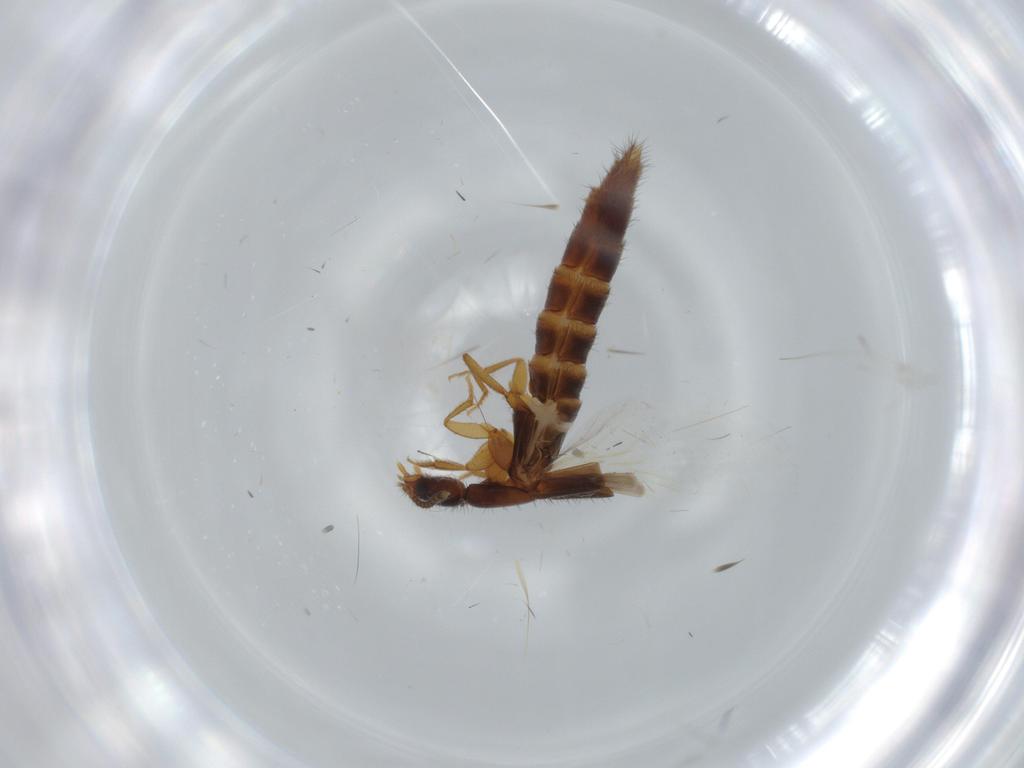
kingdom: Animalia
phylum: Arthropoda
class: Insecta
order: Coleoptera
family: Staphylinidae
